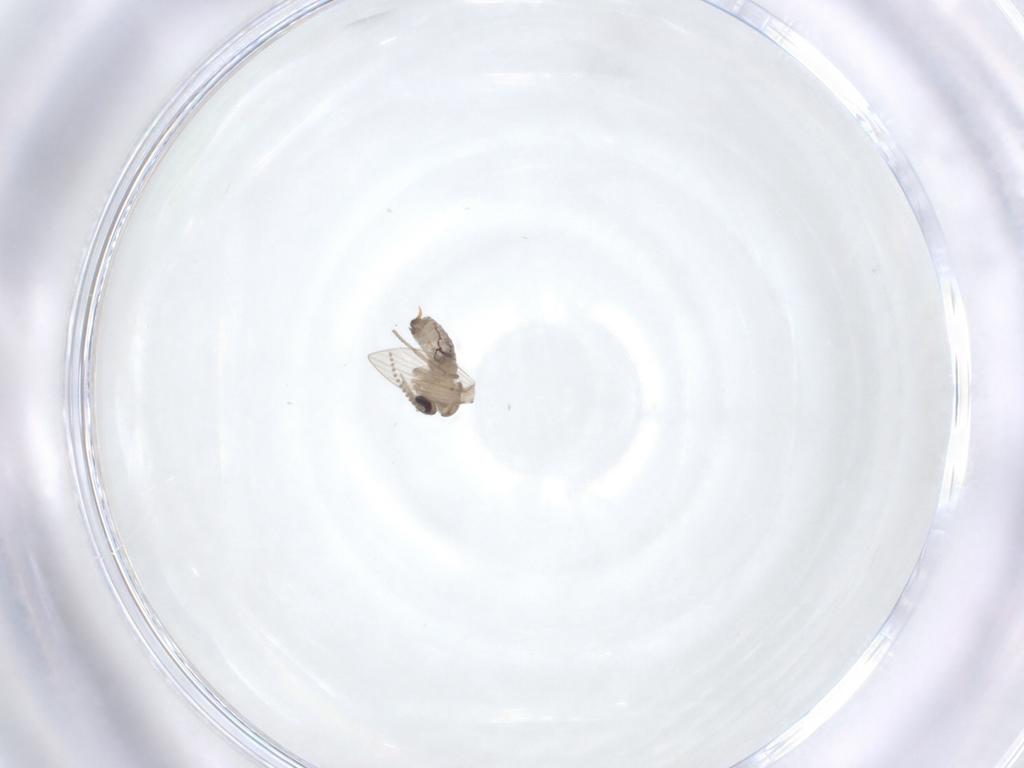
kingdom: Animalia
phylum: Arthropoda
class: Insecta
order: Diptera
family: Psychodidae
